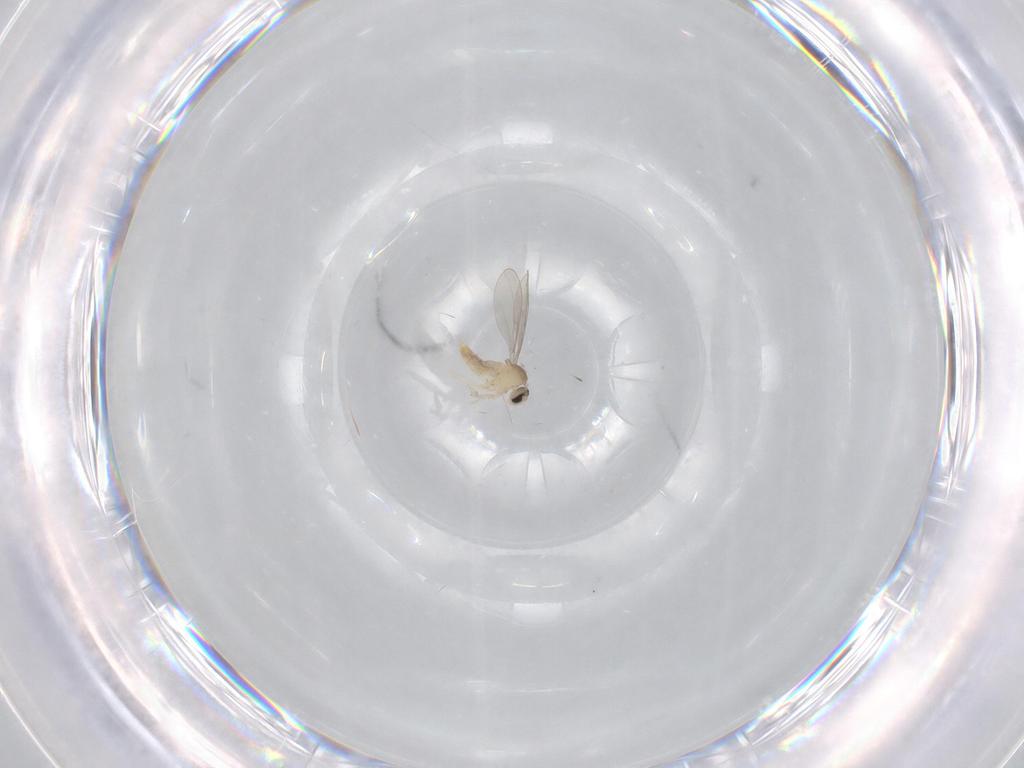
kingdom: Animalia
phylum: Arthropoda
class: Insecta
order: Diptera
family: Cecidomyiidae
